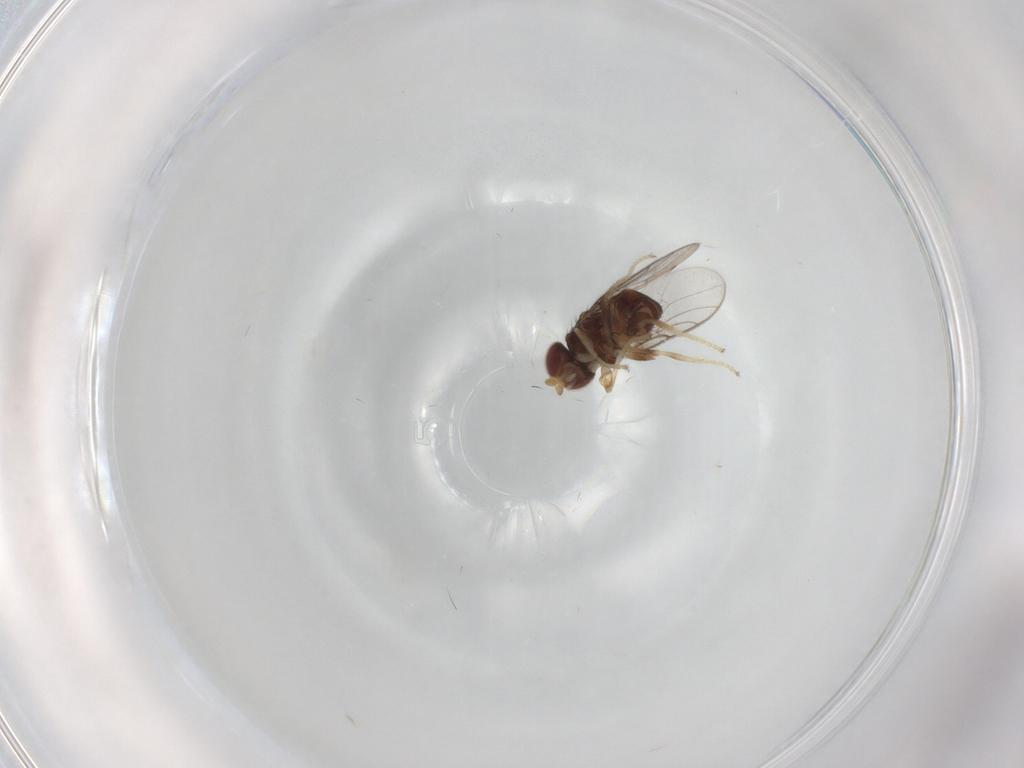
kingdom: Animalia
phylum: Arthropoda
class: Insecta
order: Diptera
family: Chloropidae
